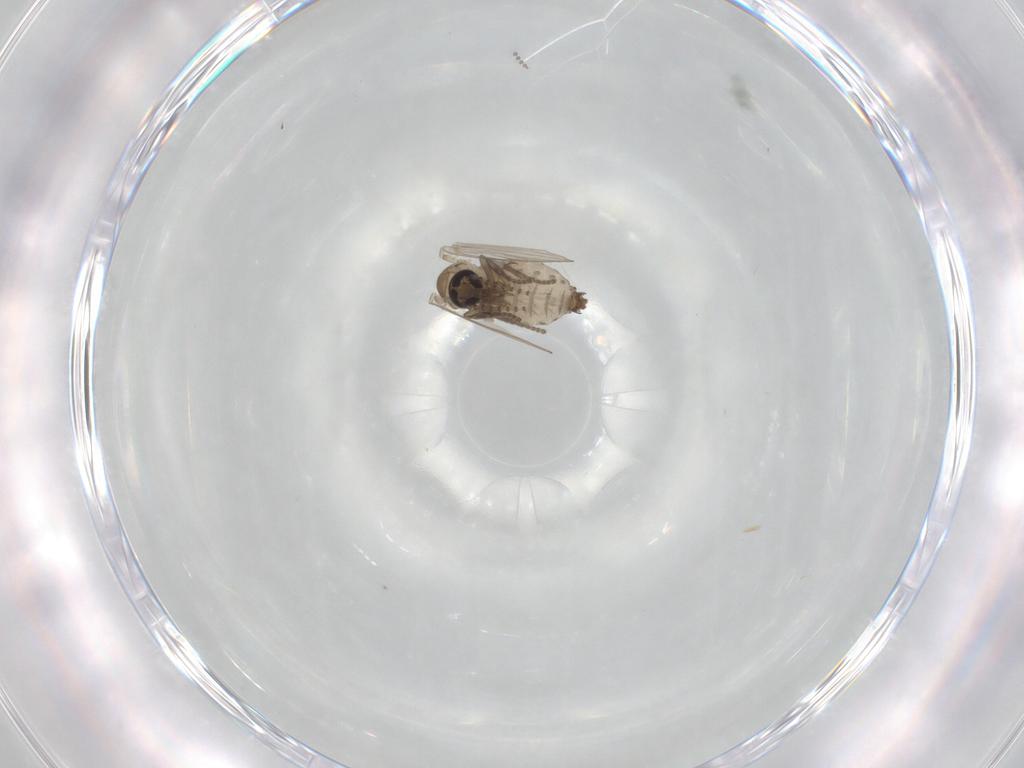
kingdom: Animalia
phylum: Arthropoda
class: Insecta
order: Diptera
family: Psychodidae
